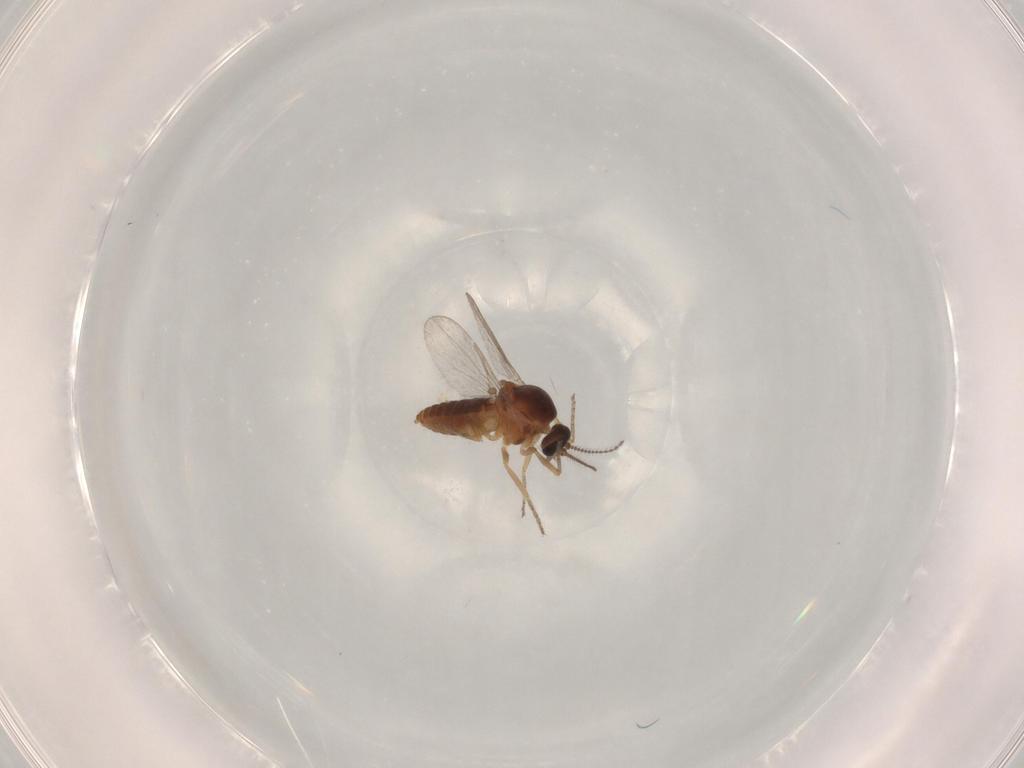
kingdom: Animalia
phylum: Arthropoda
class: Insecta
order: Diptera
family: Ceratopogonidae
